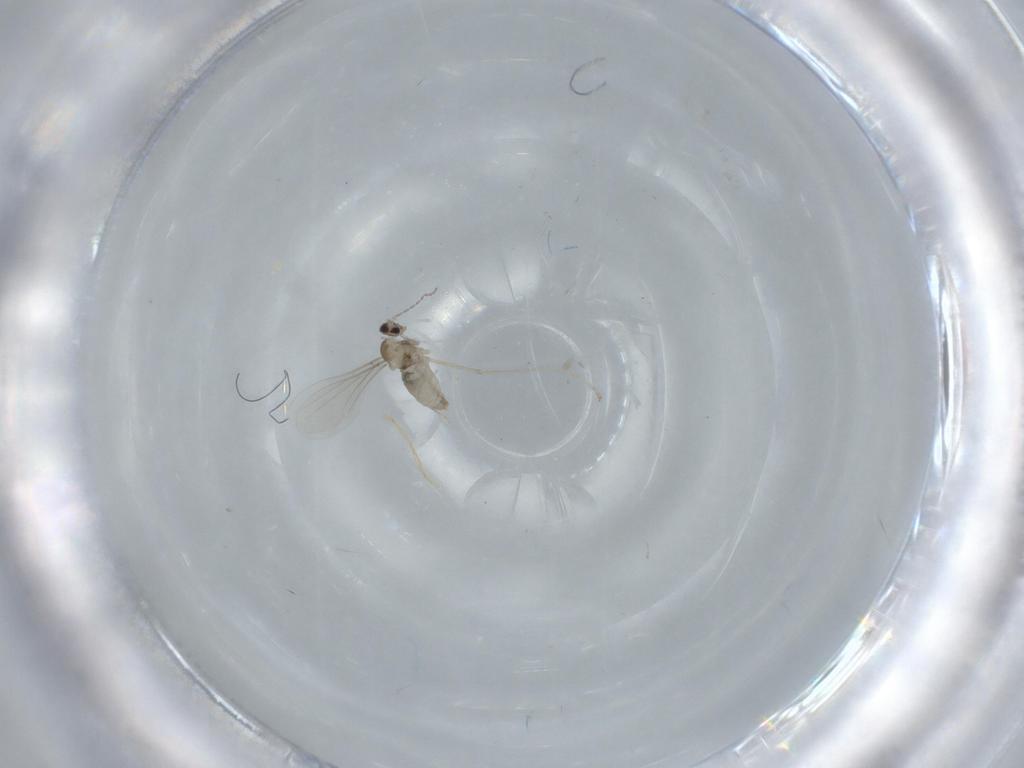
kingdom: Animalia
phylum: Arthropoda
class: Insecta
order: Diptera
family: Cecidomyiidae
